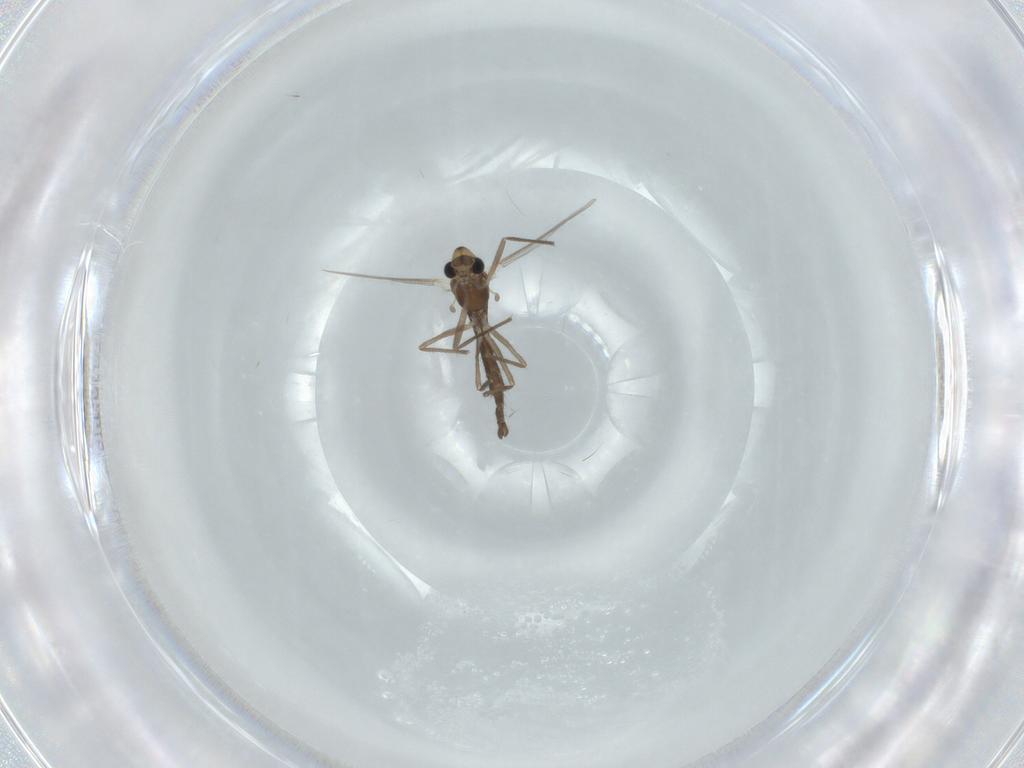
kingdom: Animalia
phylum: Arthropoda
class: Insecta
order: Diptera
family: Chironomidae
